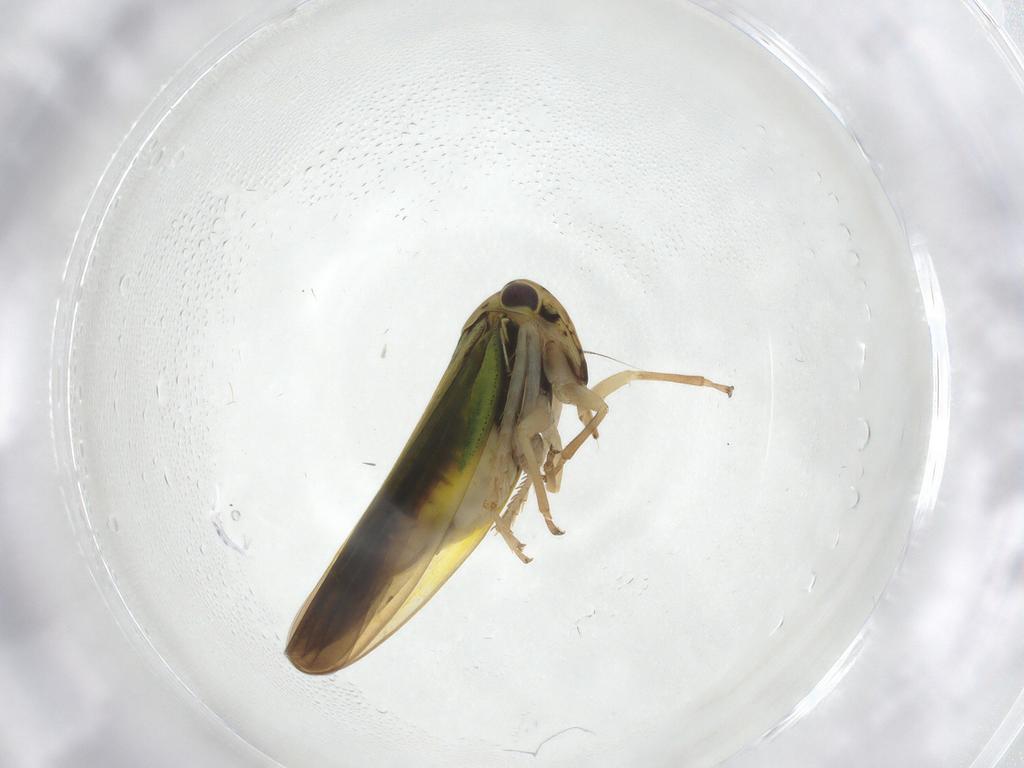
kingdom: Animalia
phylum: Arthropoda
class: Insecta
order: Hemiptera
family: Cicadellidae
